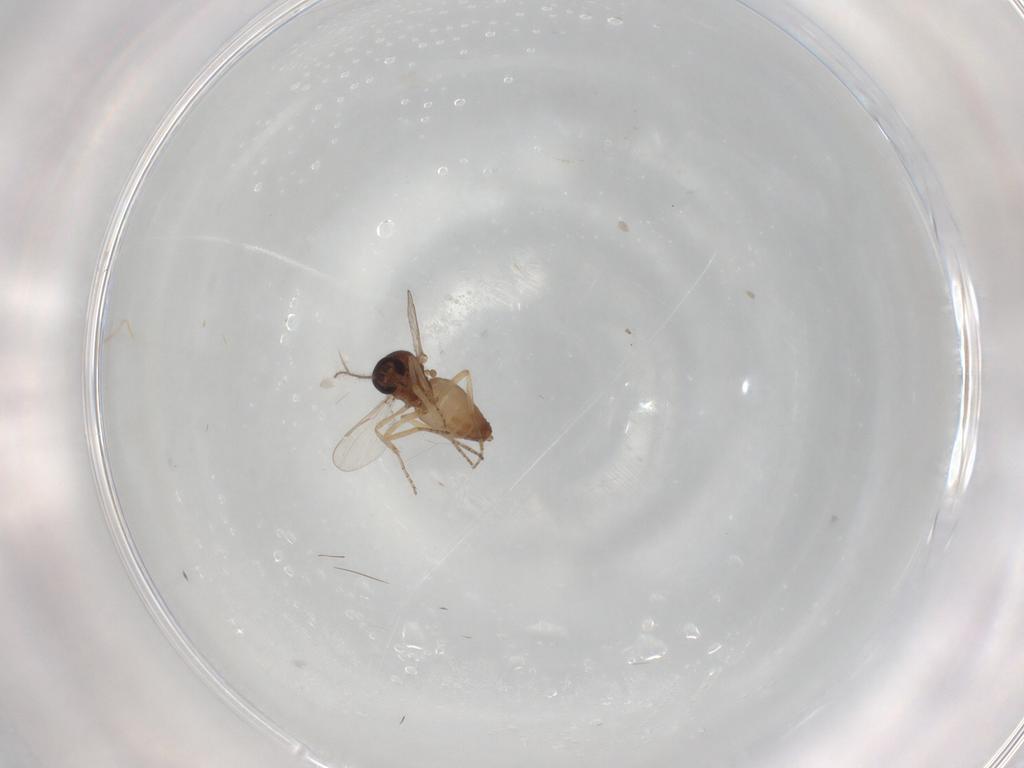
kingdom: Animalia
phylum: Arthropoda
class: Insecta
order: Diptera
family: Ceratopogonidae
